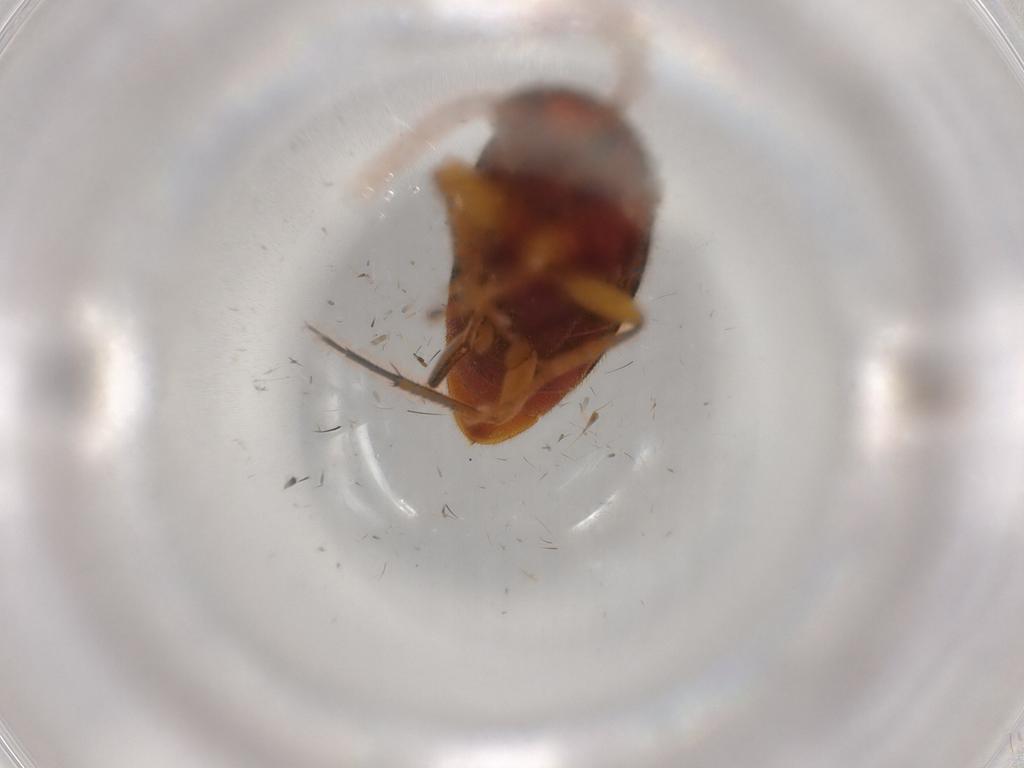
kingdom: Animalia
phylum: Arthropoda
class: Insecta
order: Coleoptera
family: Elateridae
